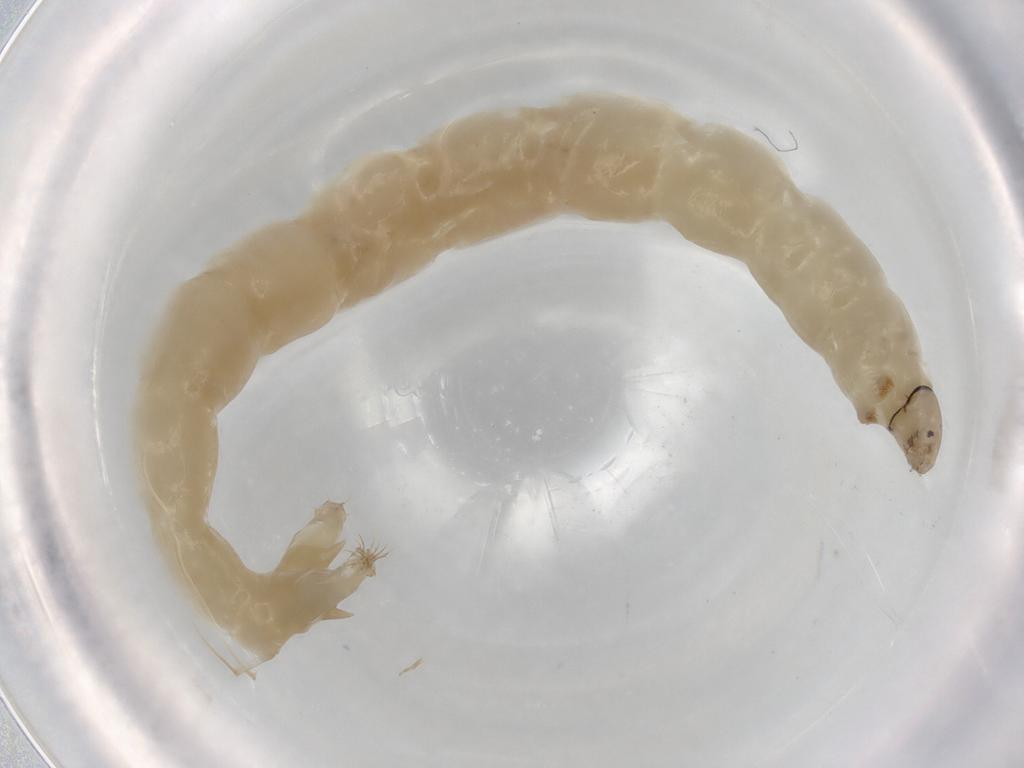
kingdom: Animalia
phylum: Arthropoda
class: Insecta
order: Diptera
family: Chironomidae
